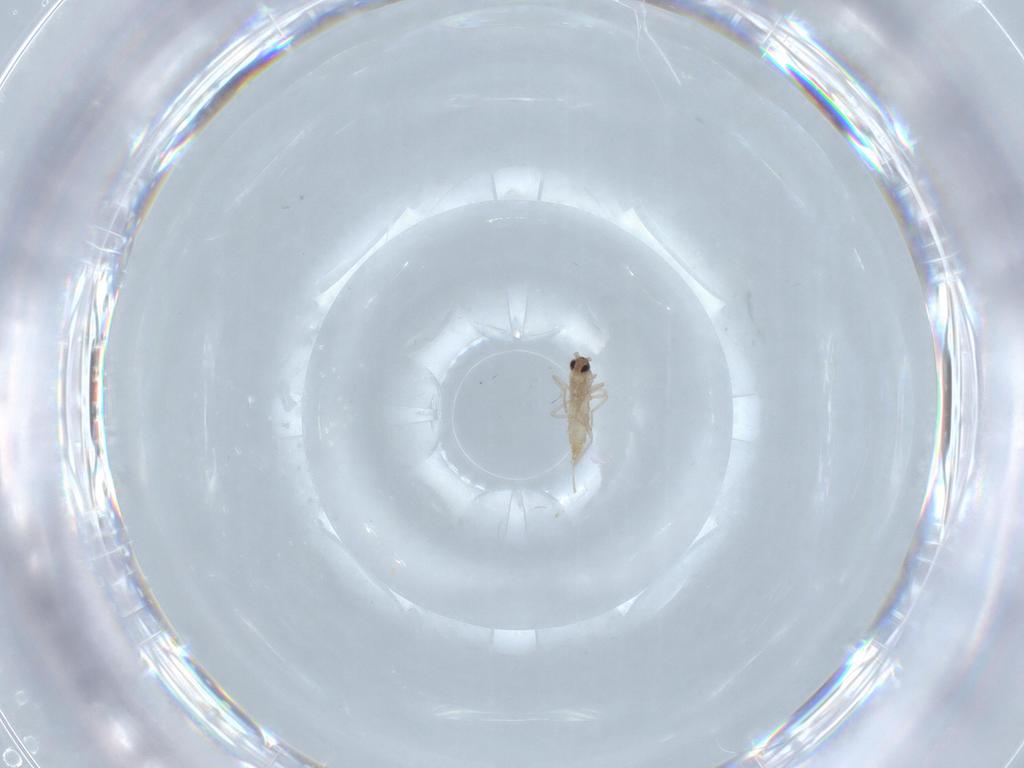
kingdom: Animalia
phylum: Arthropoda
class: Insecta
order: Diptera
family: Cecidomyiidae
